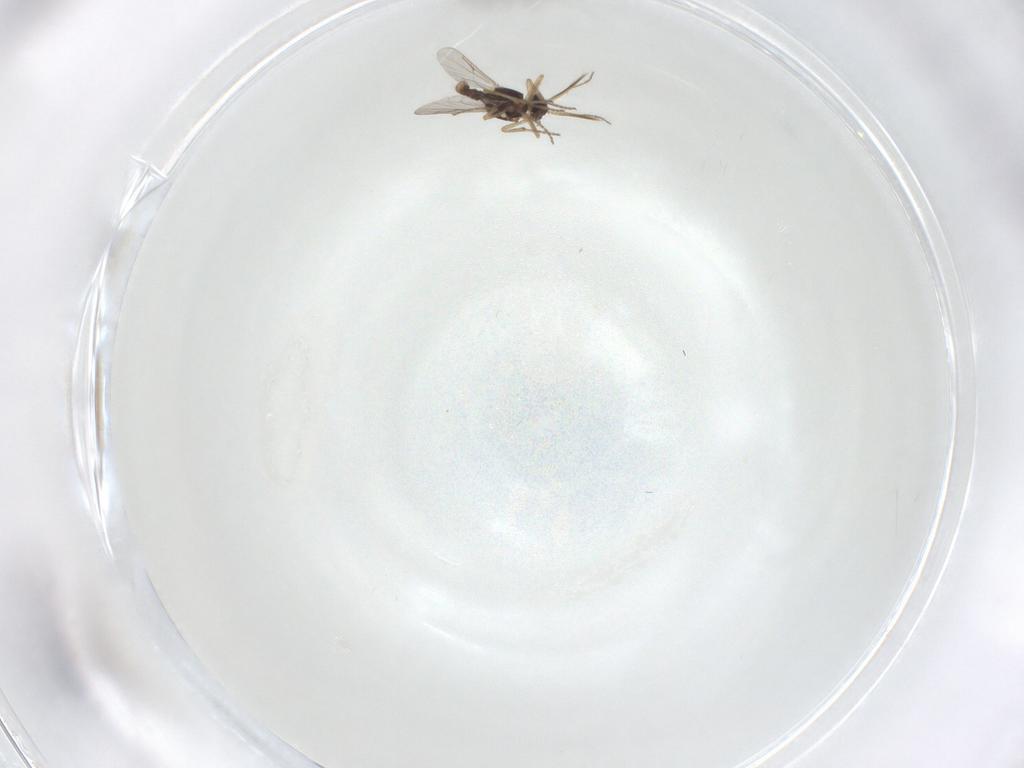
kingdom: Animalia
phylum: Arthropoda
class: Insecta
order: Diptera
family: Ceratopogonidae
